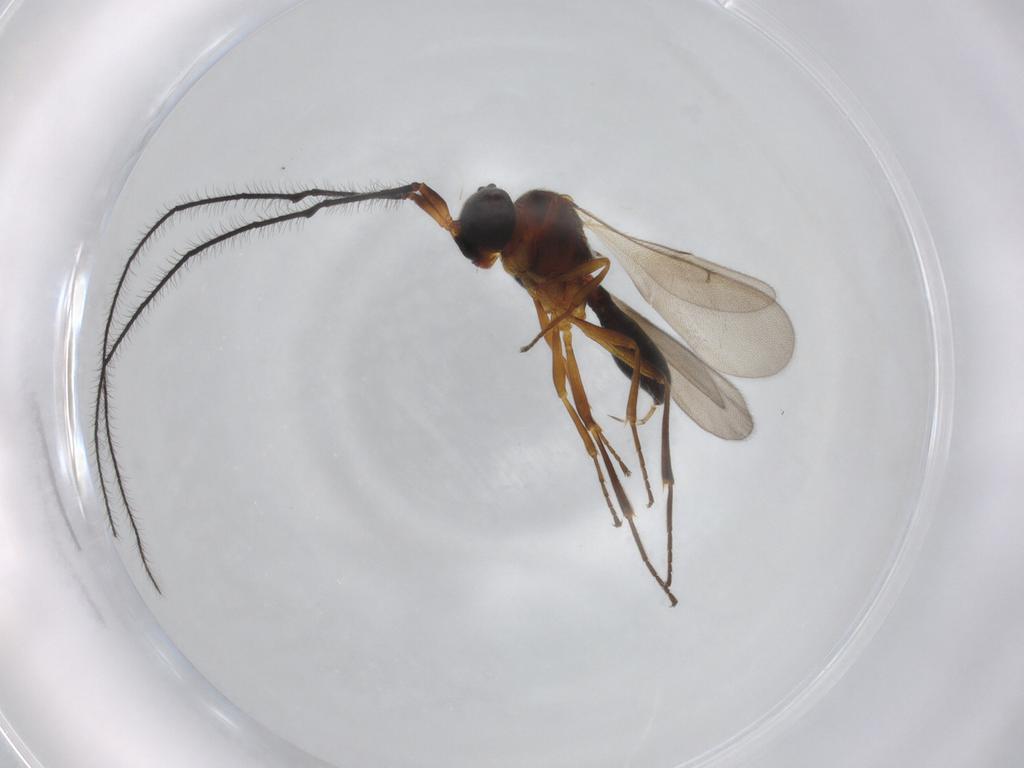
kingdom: Animalia
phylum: Arthropoda
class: Insecta
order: Hymenoptera
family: Scelionidae
